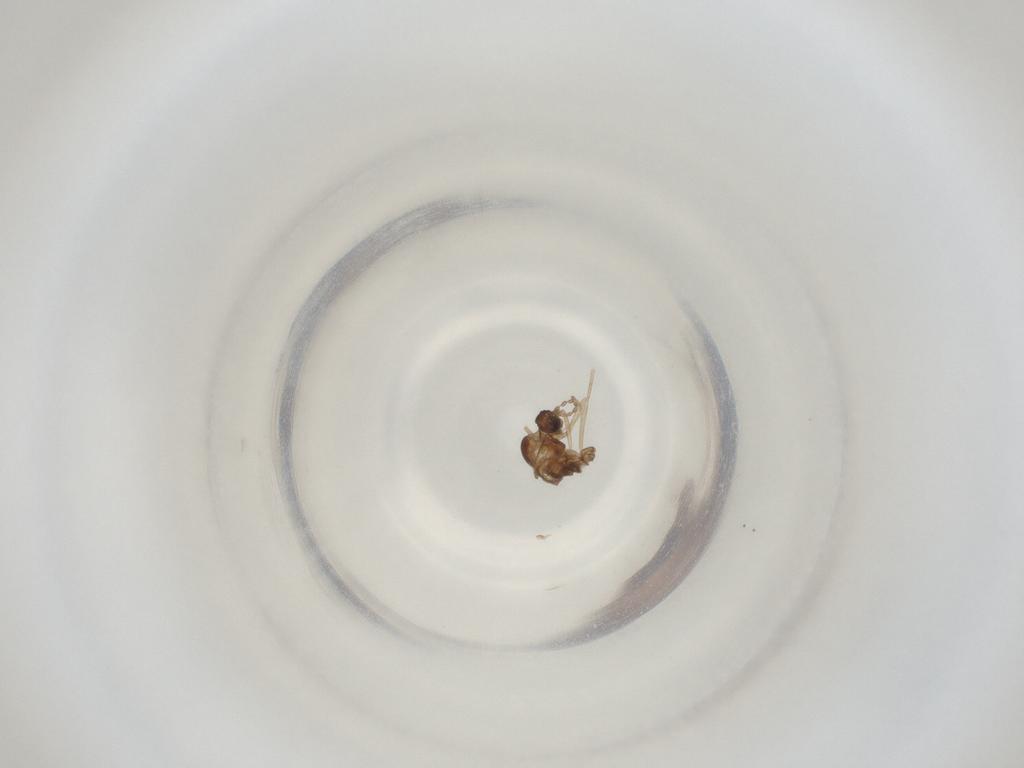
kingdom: Animalia
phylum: Arthropoda
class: Insecta
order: Diptera
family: Cecidomyiidae
